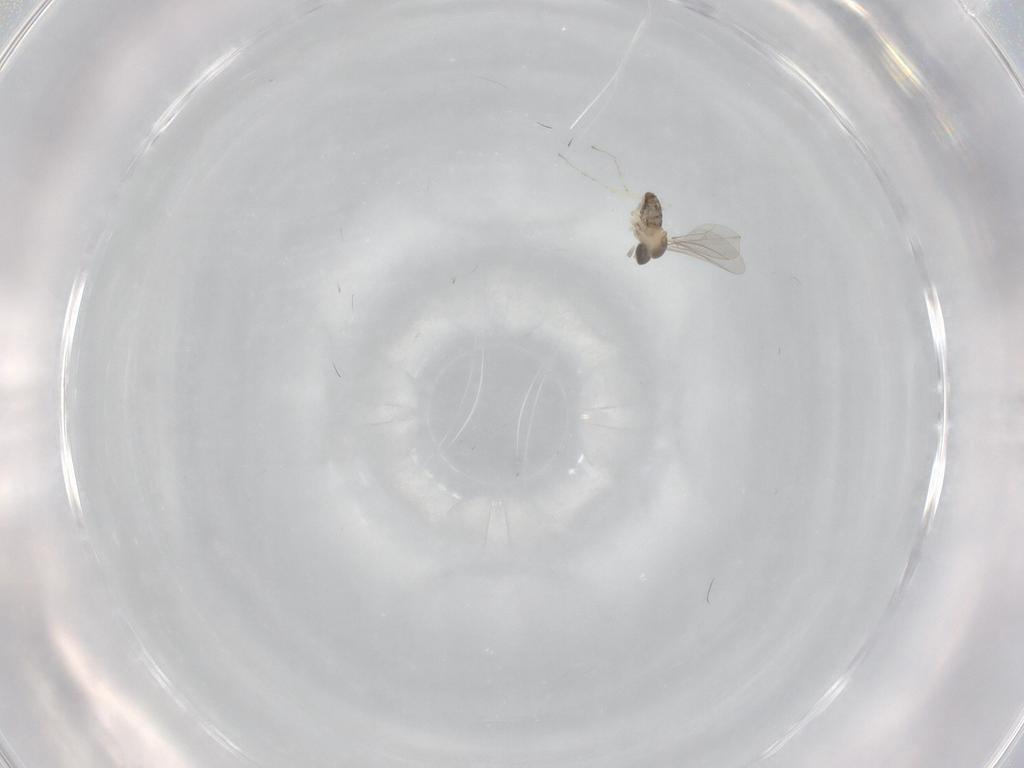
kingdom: Animalia
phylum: Arthropoda
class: Insecta
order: Diptera
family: Cecidomyiidae
